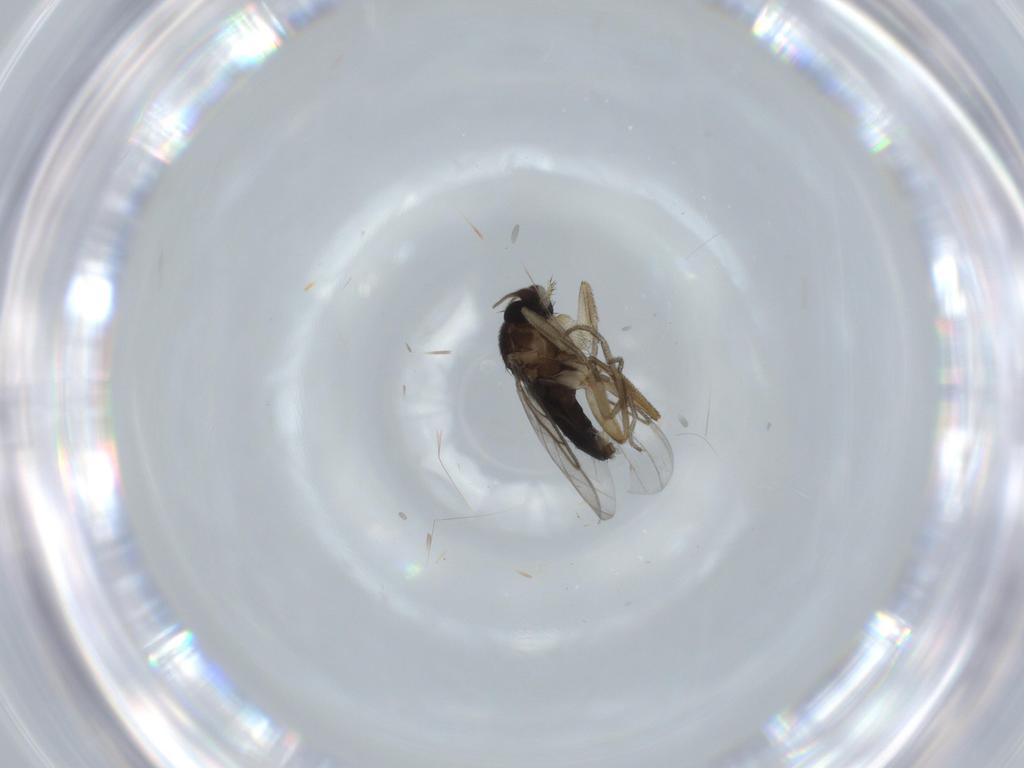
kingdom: Animalia
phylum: Arthropoda
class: Insecta
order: Diptera
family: Phoridae
